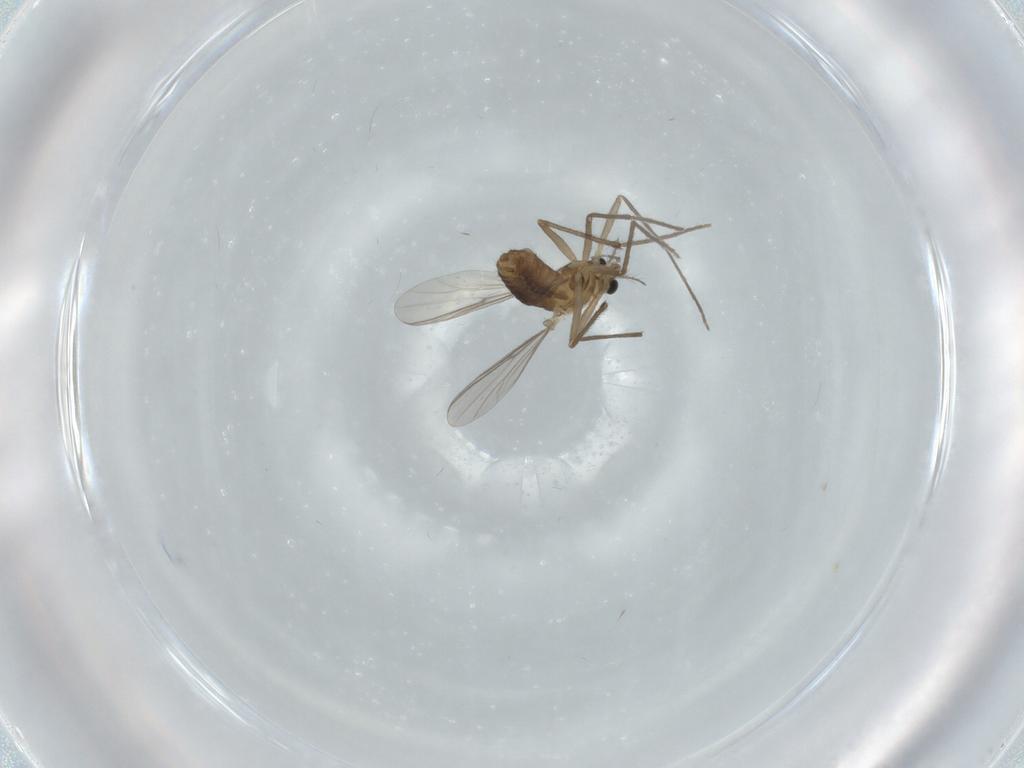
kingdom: Animalia
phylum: Arthropoda
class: Insecta
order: Diptera
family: Chironomidae
